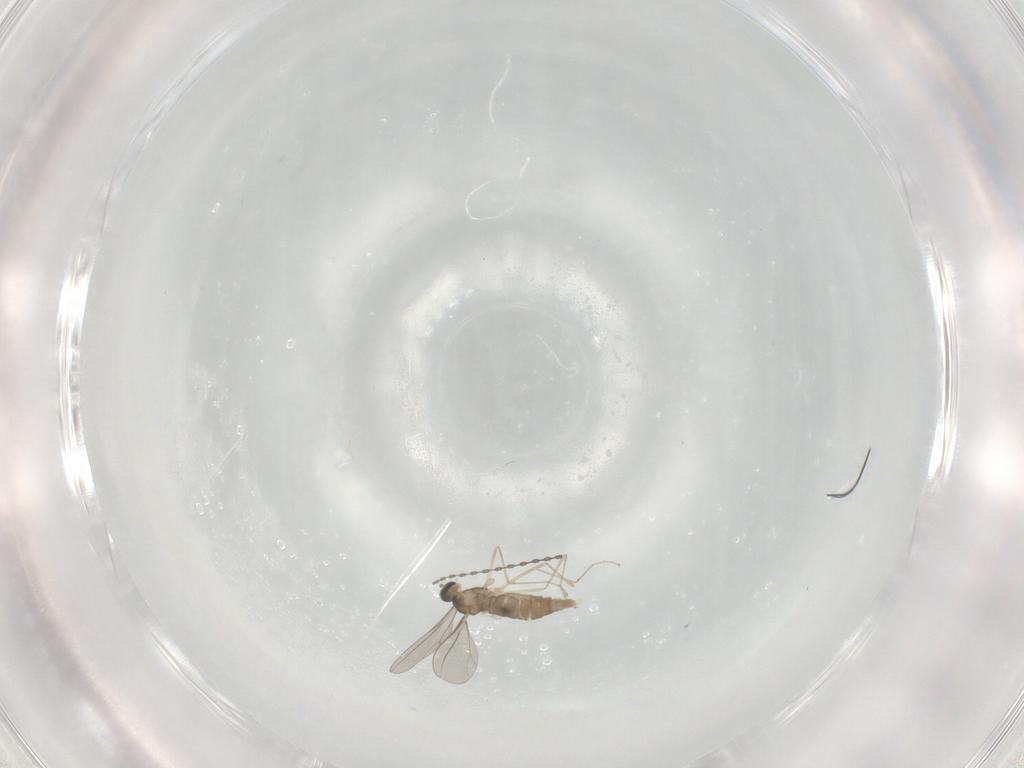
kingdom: Animalia
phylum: Arthropoda
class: Insecta
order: Diptera
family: Cecidomyiidae
